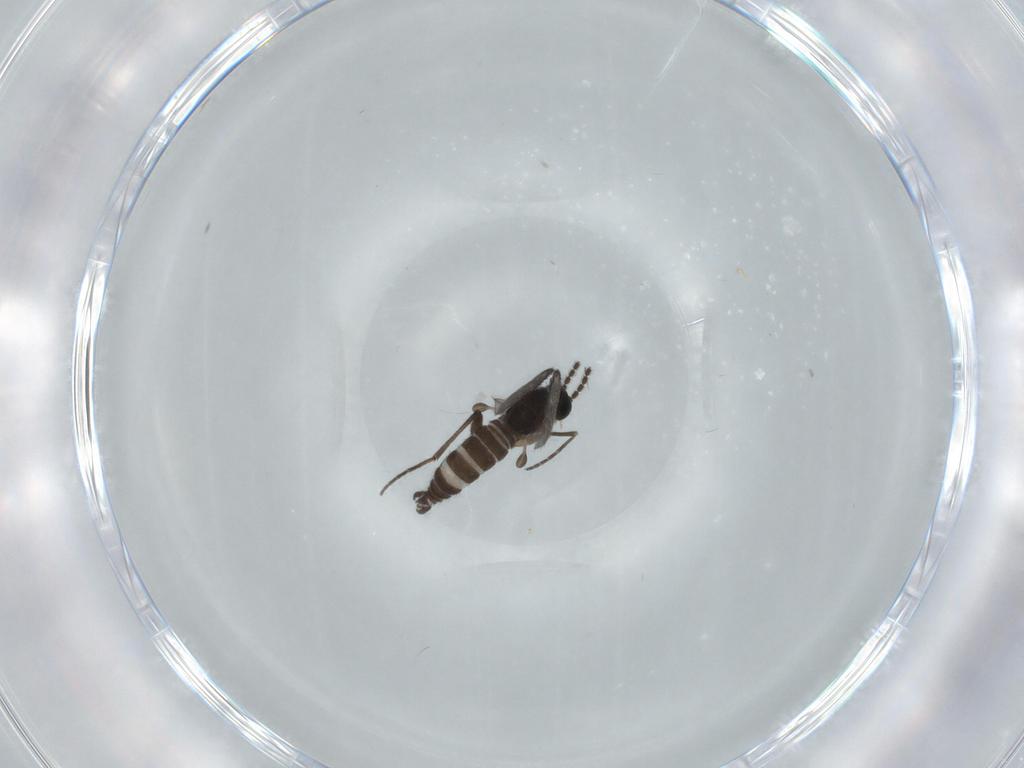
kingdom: Animalia
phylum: Arthropoda
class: Insecta
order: Diptera
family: Sciaridae
